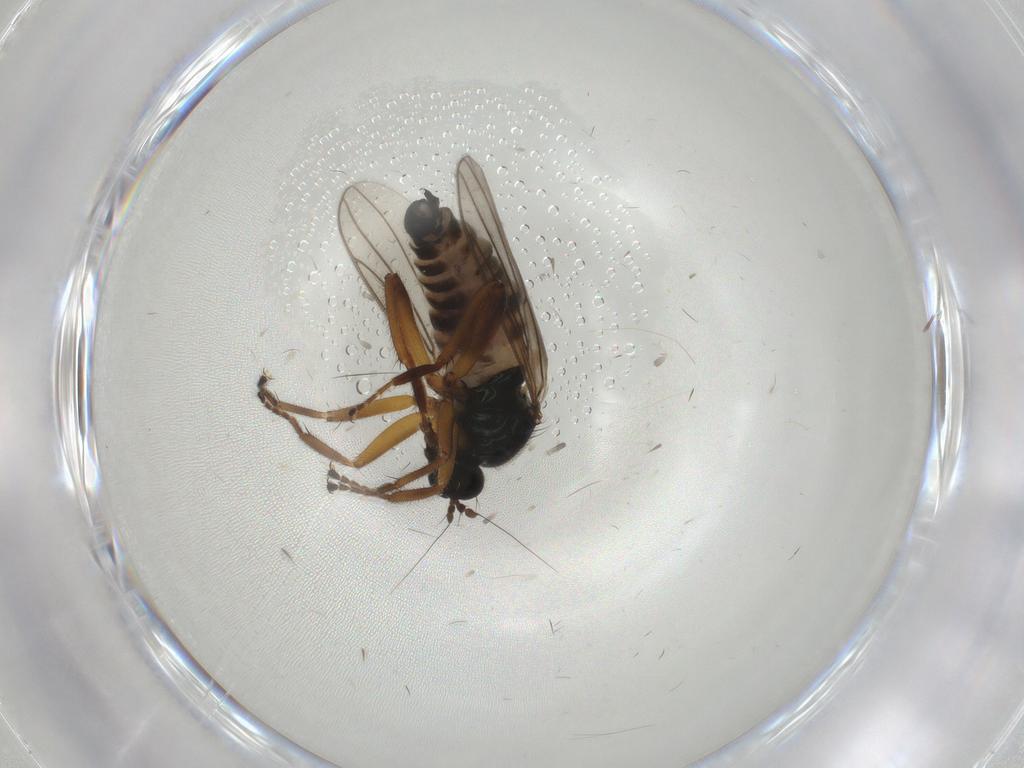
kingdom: Animalia
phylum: Arthropoda
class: Insecta
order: Diptera
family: Hybotidae
